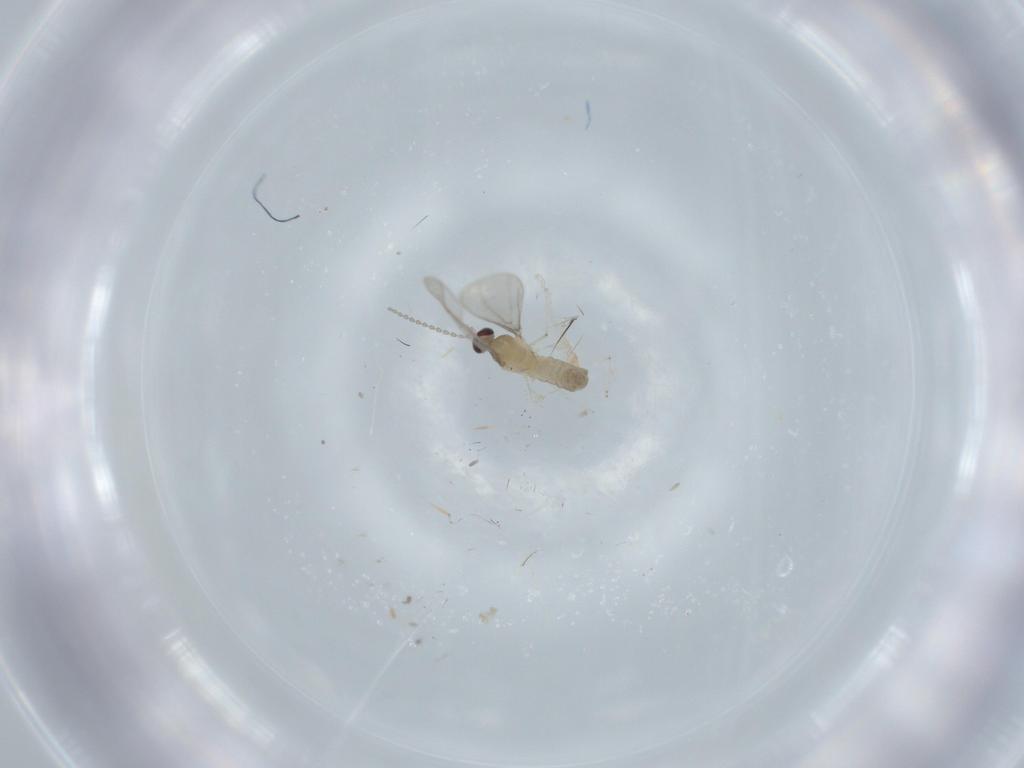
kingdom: Animalia
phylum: Arthropoda
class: Insecta
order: Diptera
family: Cecidomyiidae
